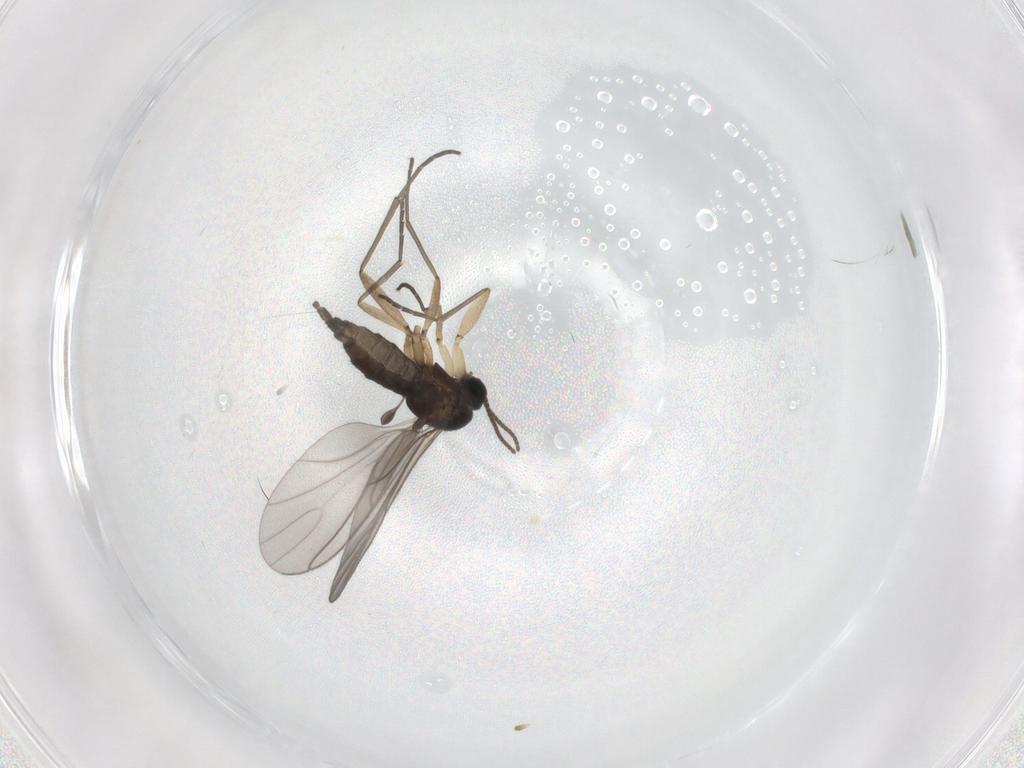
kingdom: Animalia
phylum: Arthropoda
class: Insecta
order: Diptera
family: Sciaridae
